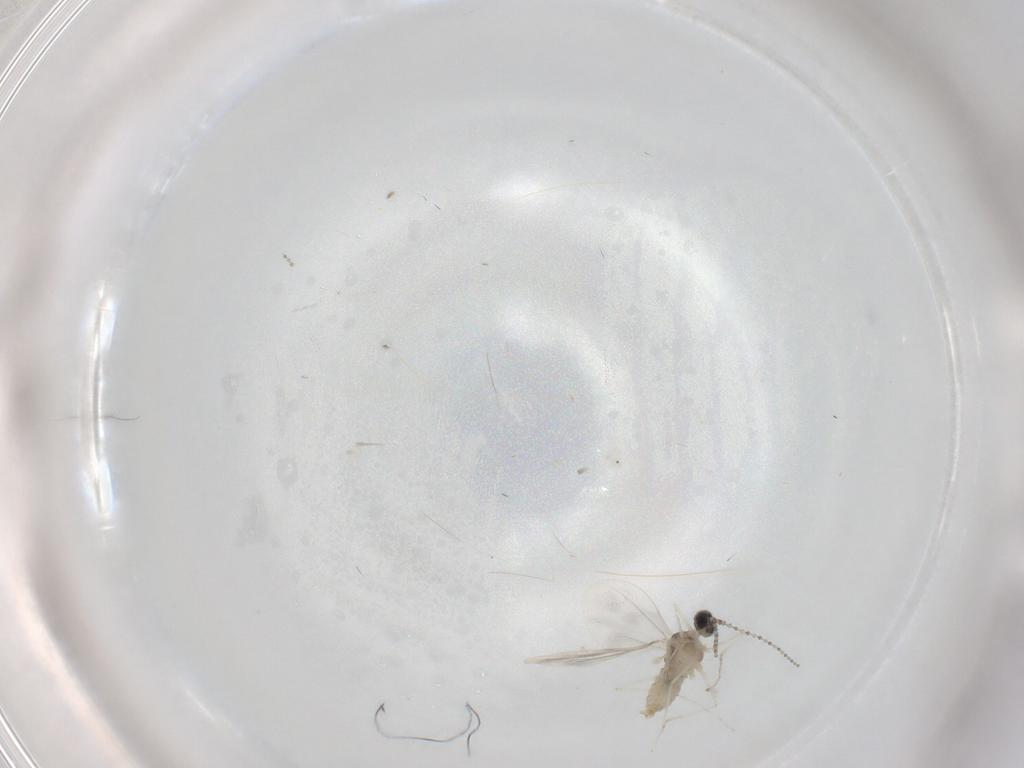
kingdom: Animalia
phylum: Arthropoda
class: Insecta
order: Diptera
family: Cecidomyiidae
